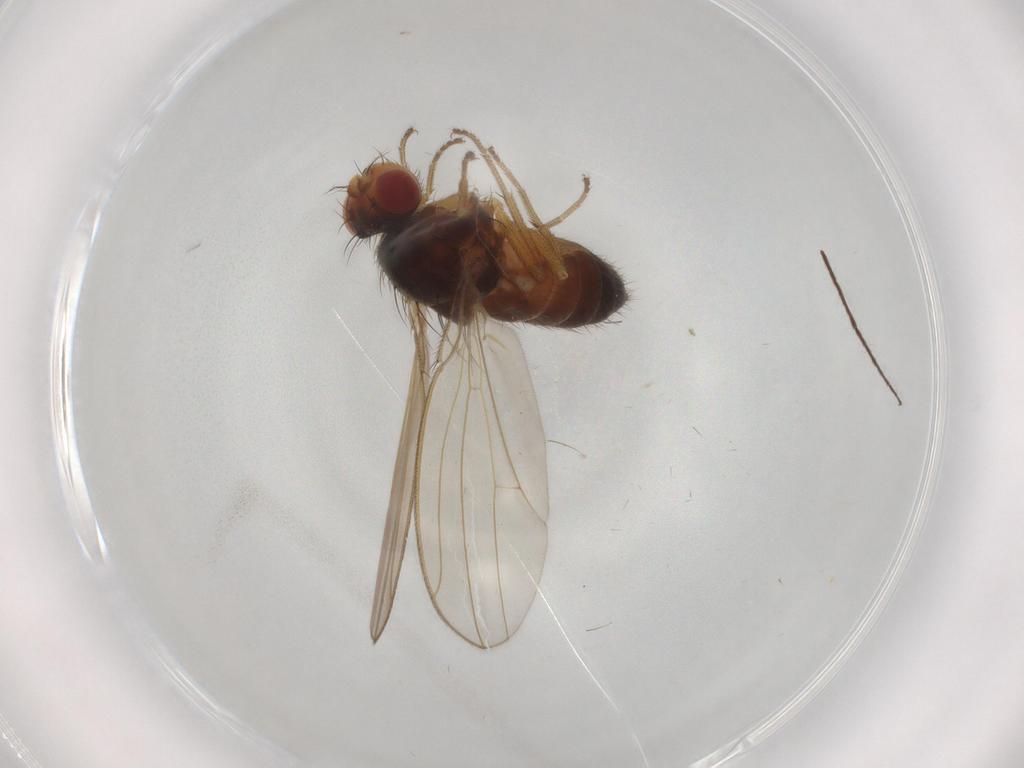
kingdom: Animalia
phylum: Arthropoda
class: Insecta
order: Diptera
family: Drosophilidae
